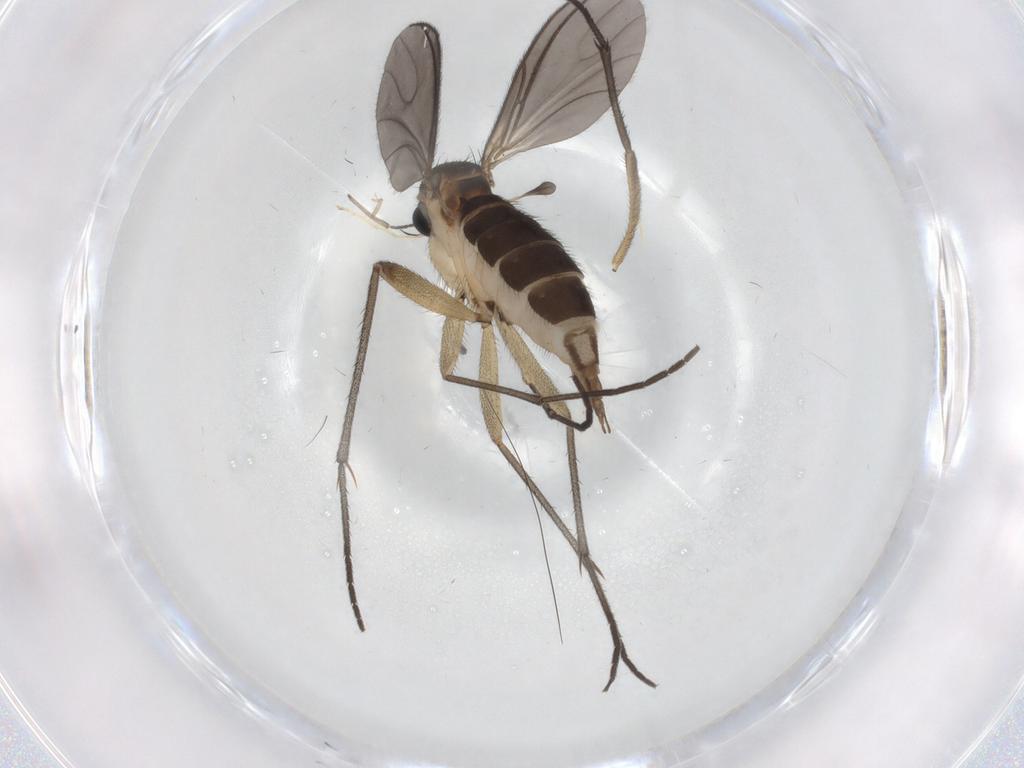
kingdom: Animalia
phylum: Arthropoda
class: Insecta
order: Diptera
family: Sciaridae
